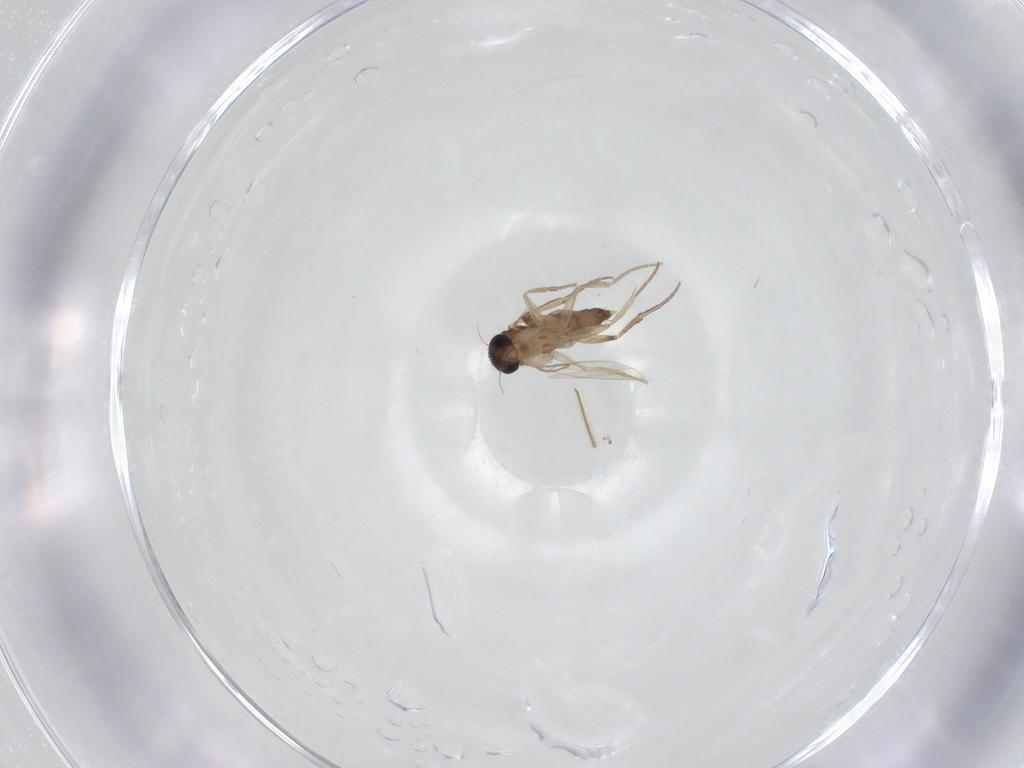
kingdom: Animalia
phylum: Arthropoda
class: Insecta
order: Diptera
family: Phoridae
